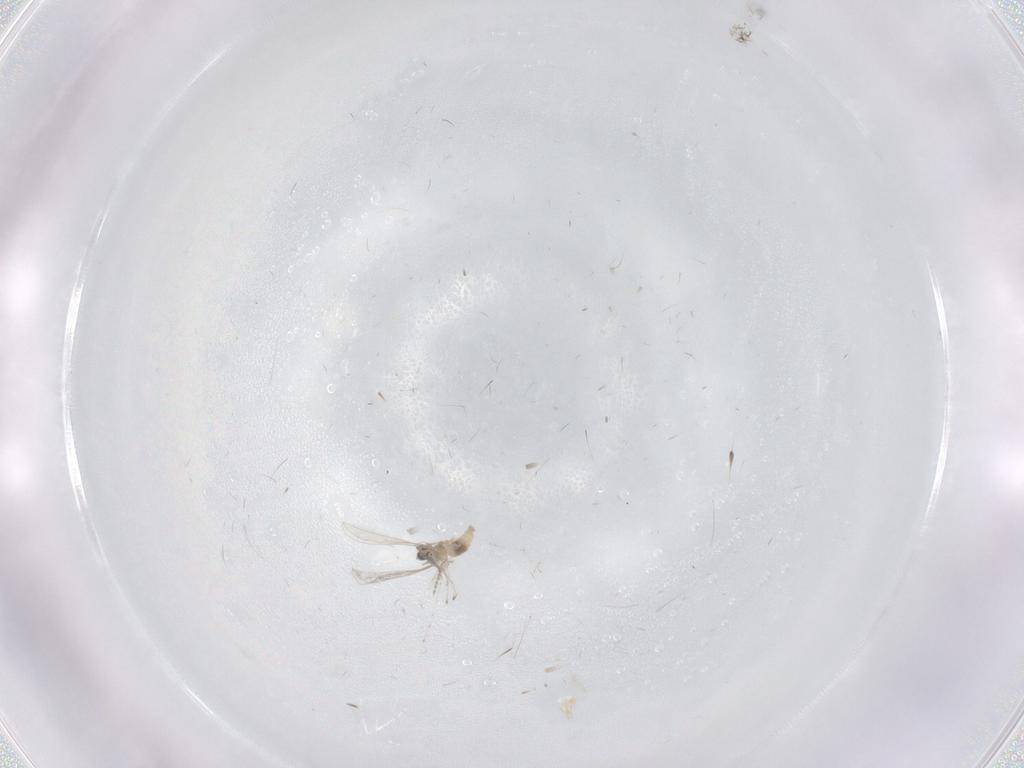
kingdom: Animalia
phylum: Arthropoda
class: Insecta
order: Diptera
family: Cecidomyiidae
